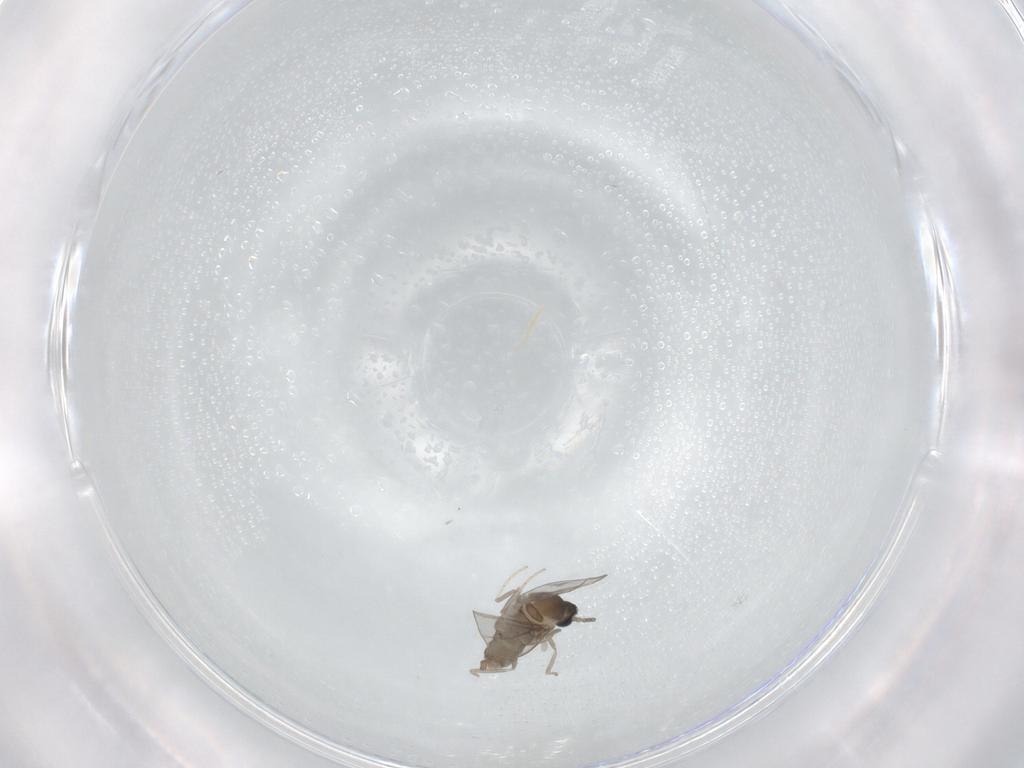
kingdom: Animalia
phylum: Arthropoda
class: Insecta
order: Diptera
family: Cecidomyiidae
